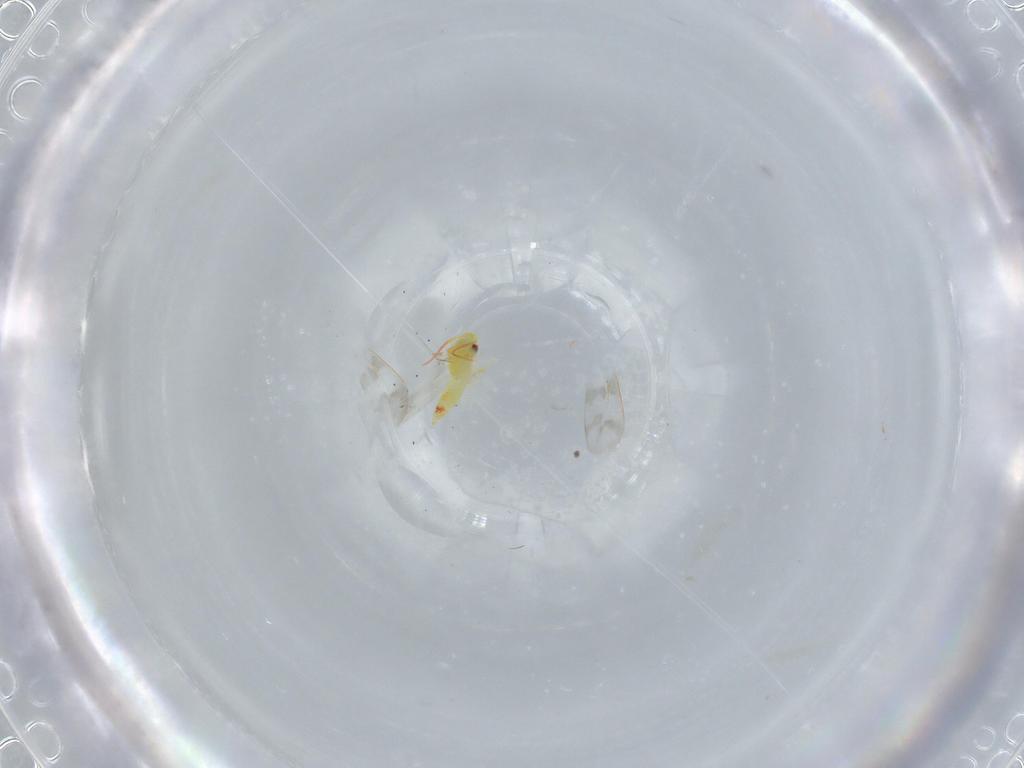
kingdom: Animalia
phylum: Arthropoda
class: Insecta
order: Hemiptera
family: Aleyrodidae
